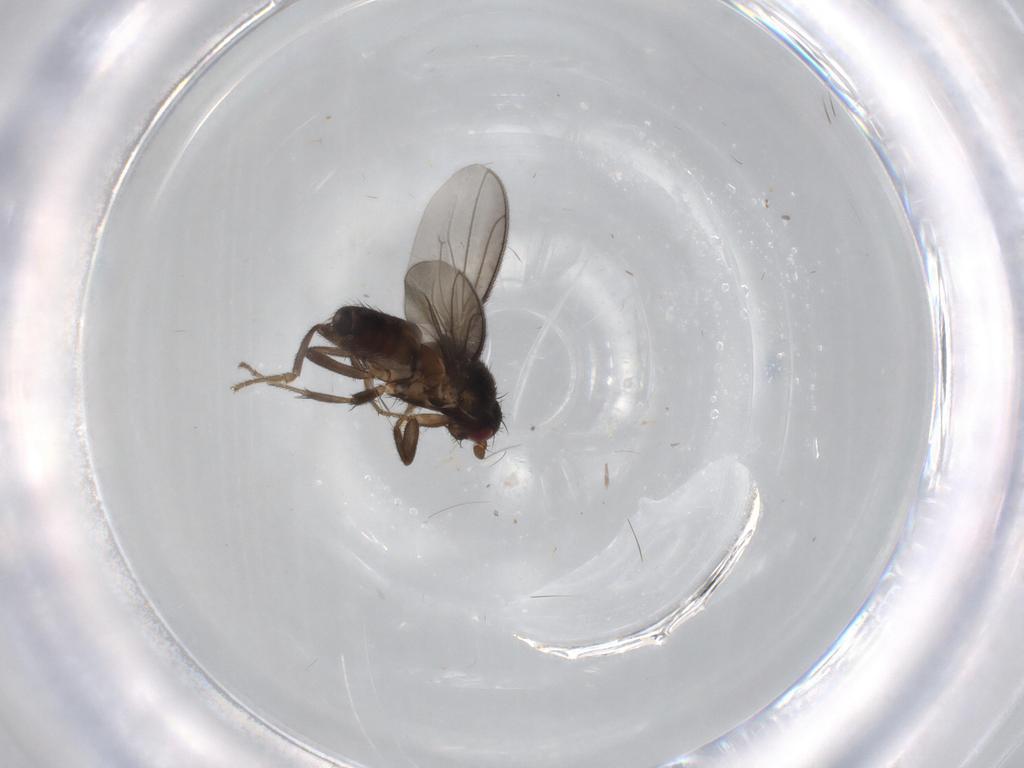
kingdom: Animalia
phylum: Arthropoda
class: Insecta
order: Diptera
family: Sphaeroceridae
